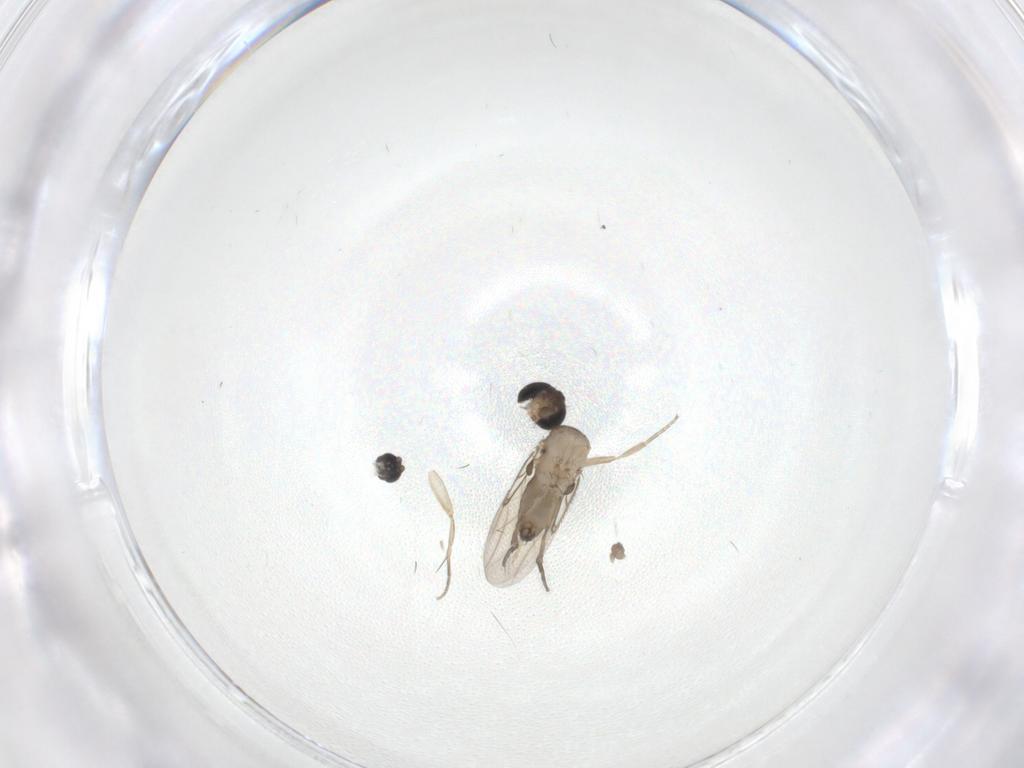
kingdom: Animalia
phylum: Arthropoda
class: Insecta
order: Diptera
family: Sciaridae
